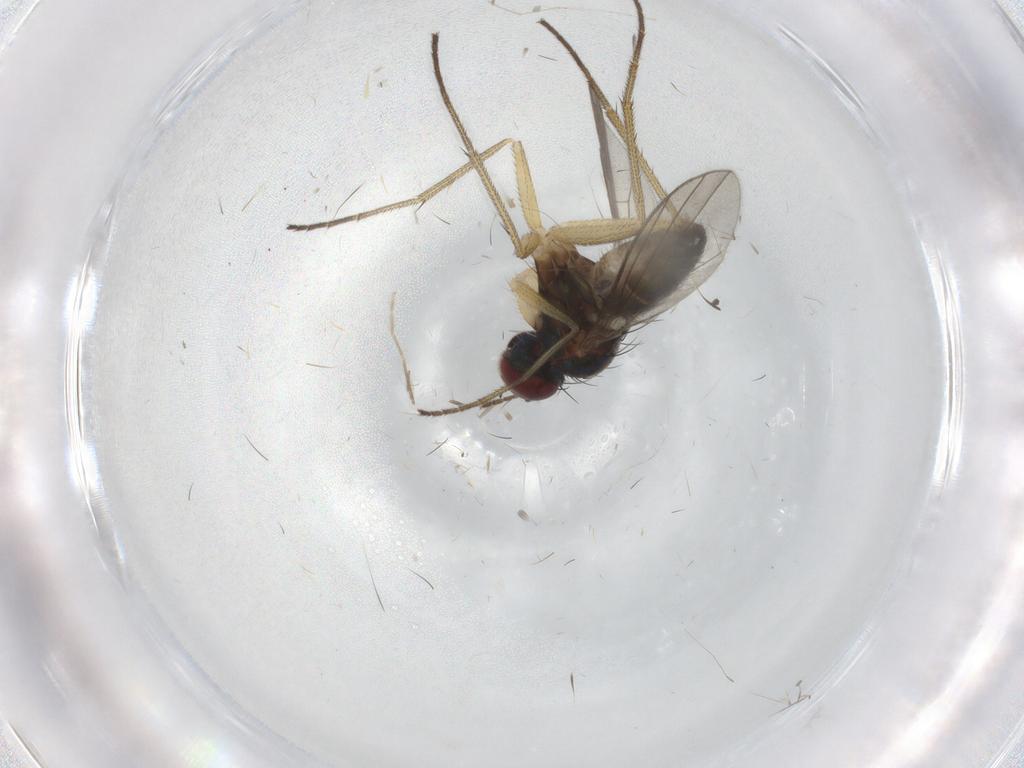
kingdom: Animalia
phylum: Arthropoda
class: Insecta
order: Diptera
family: Dolichopodidae
